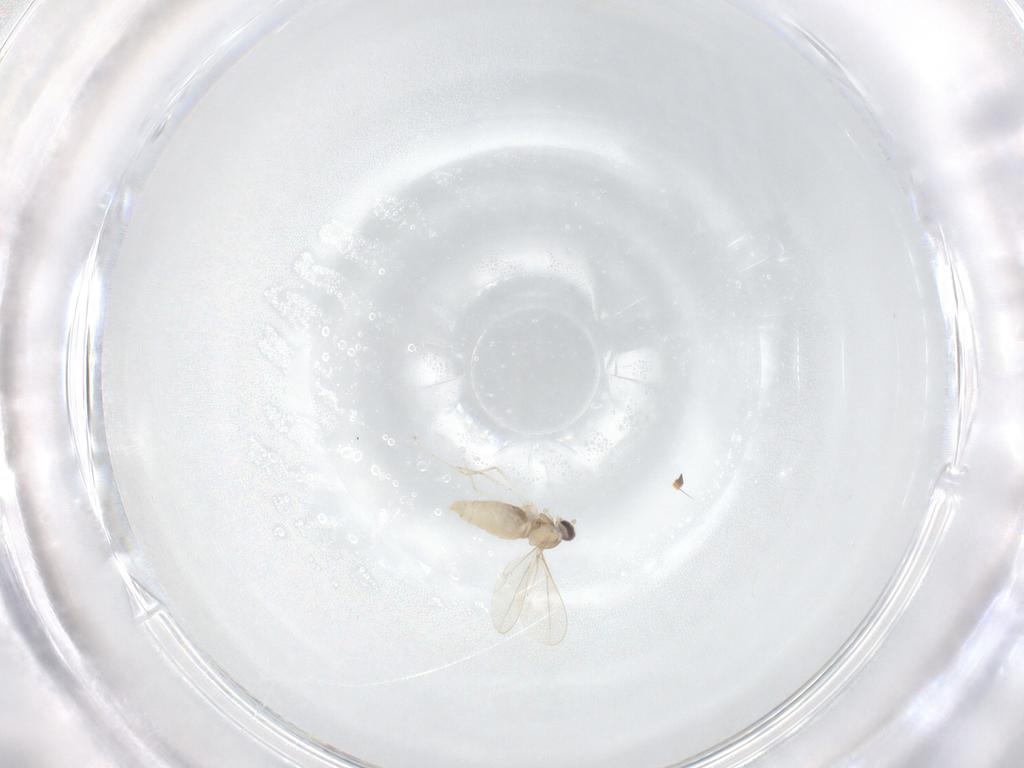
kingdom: Animalia
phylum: Arthropoda
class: Insecta
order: Diptera
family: Cecidomyiidae
